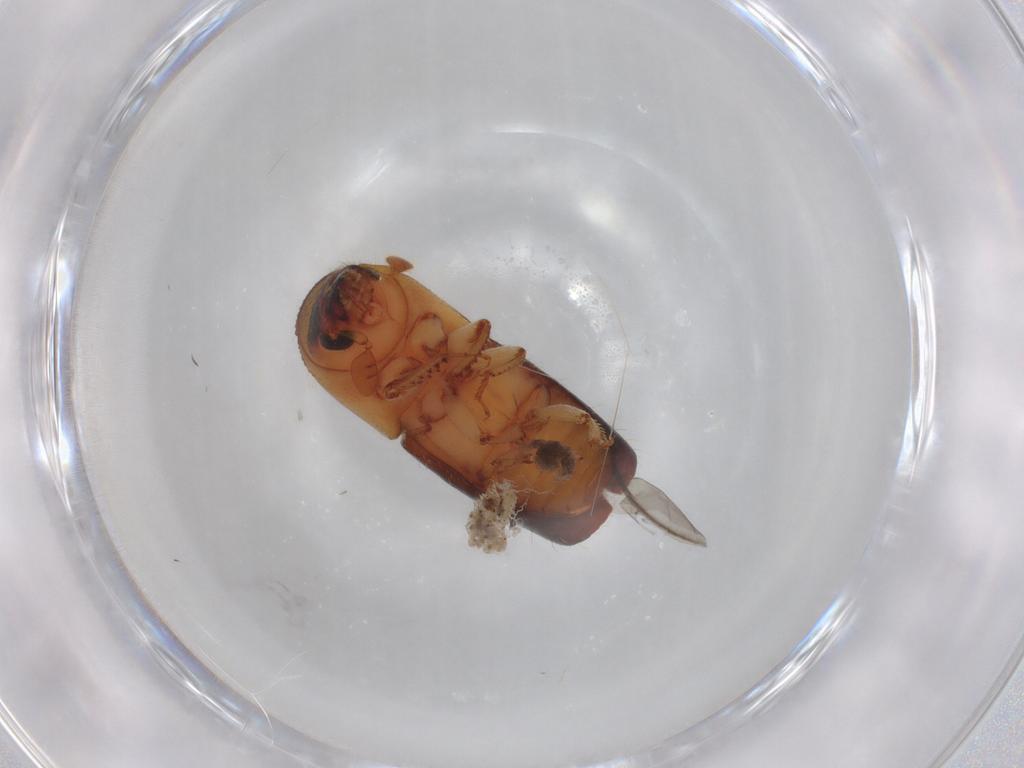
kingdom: Animalia
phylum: Arthropoda
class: Insecta
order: Coleoptera
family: Curculionidae
